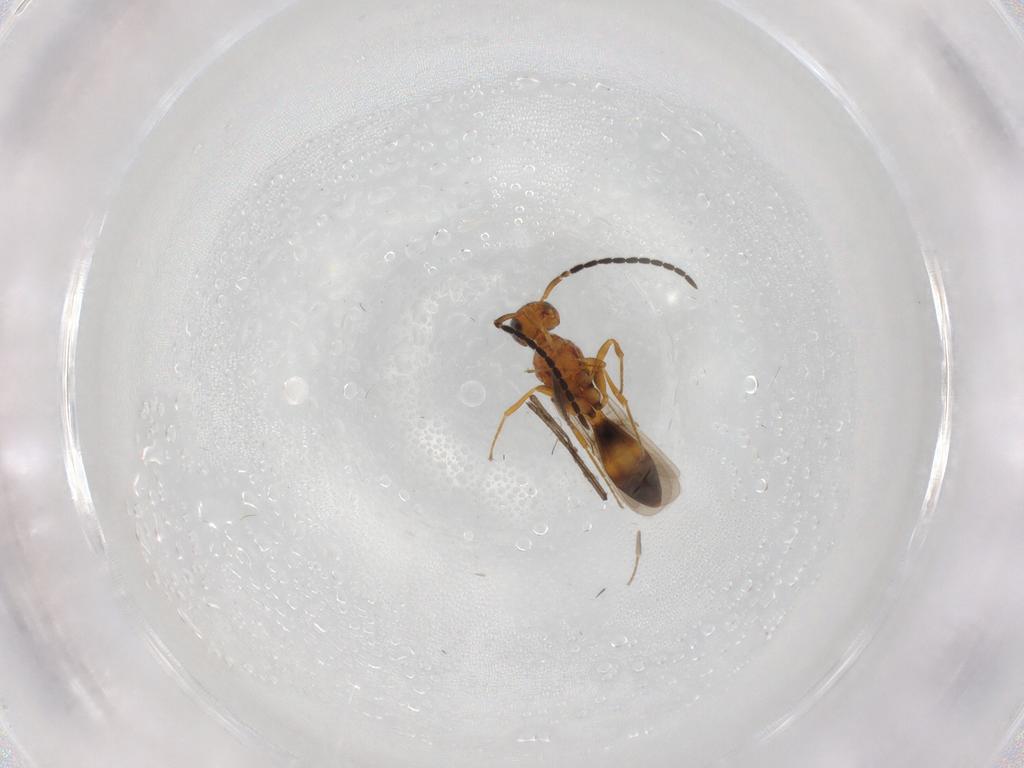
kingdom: Animalia
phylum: Arthropoda
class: Insecta
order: Hymenoptera
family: Scelionidae
